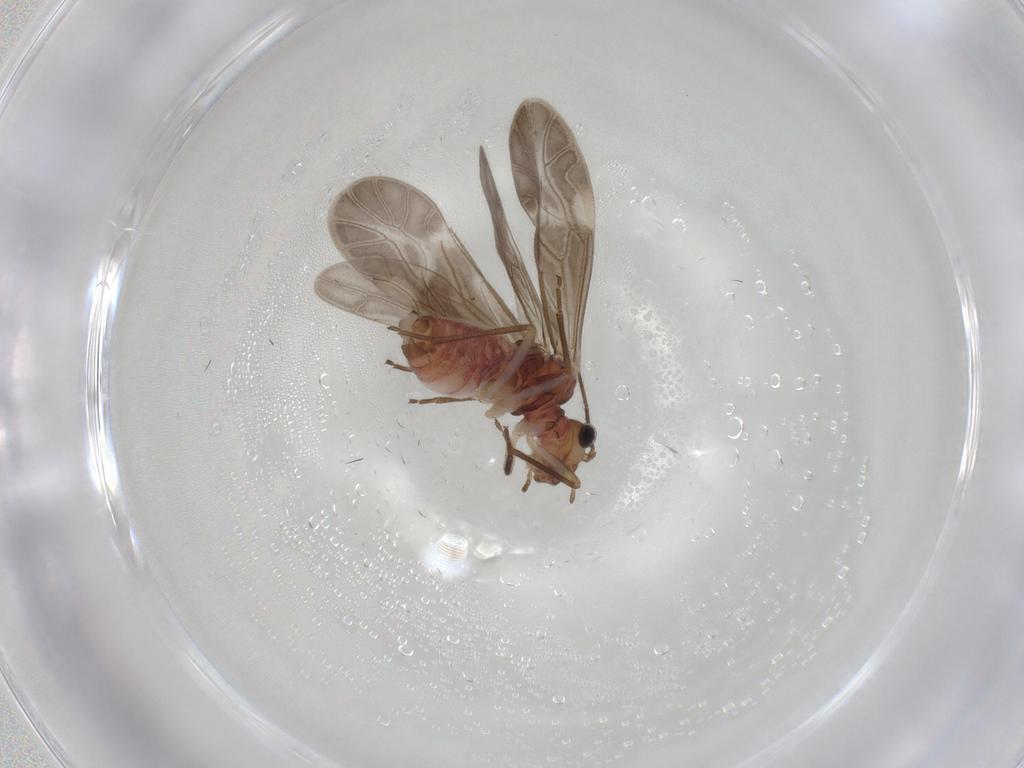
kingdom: Animalia
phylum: Arthropoda
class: Insecta
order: Psocodea
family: Caeciliusidae
